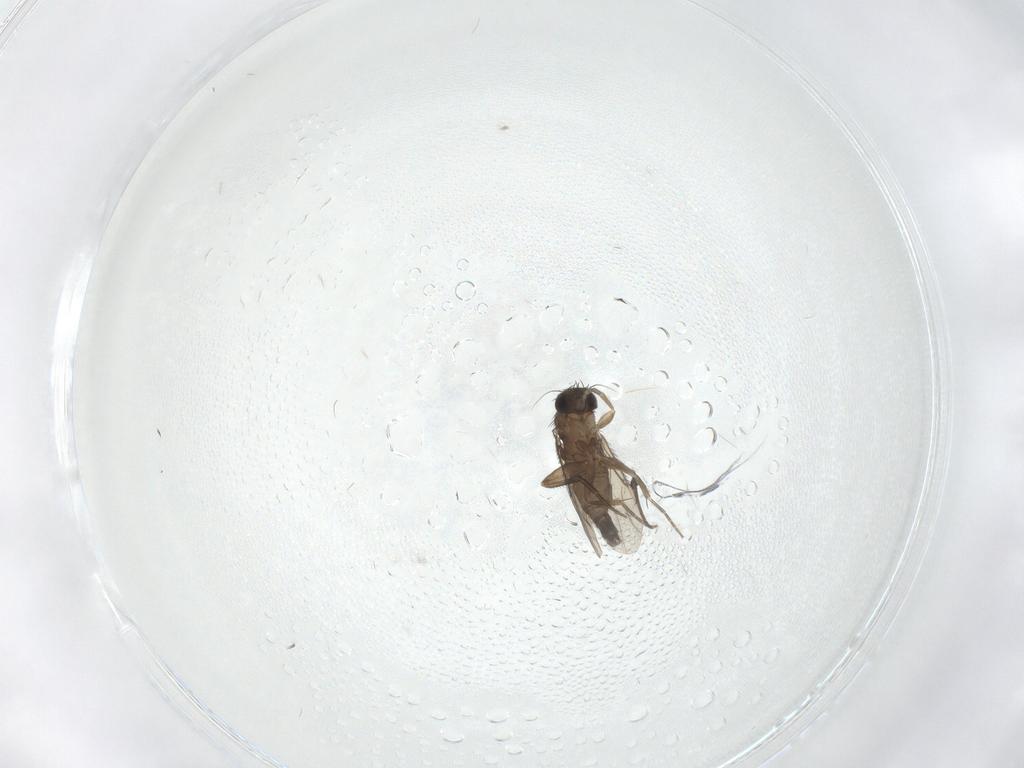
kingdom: Animalia
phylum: Arthropoda
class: Insecta
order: Diptera
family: Phoridae
